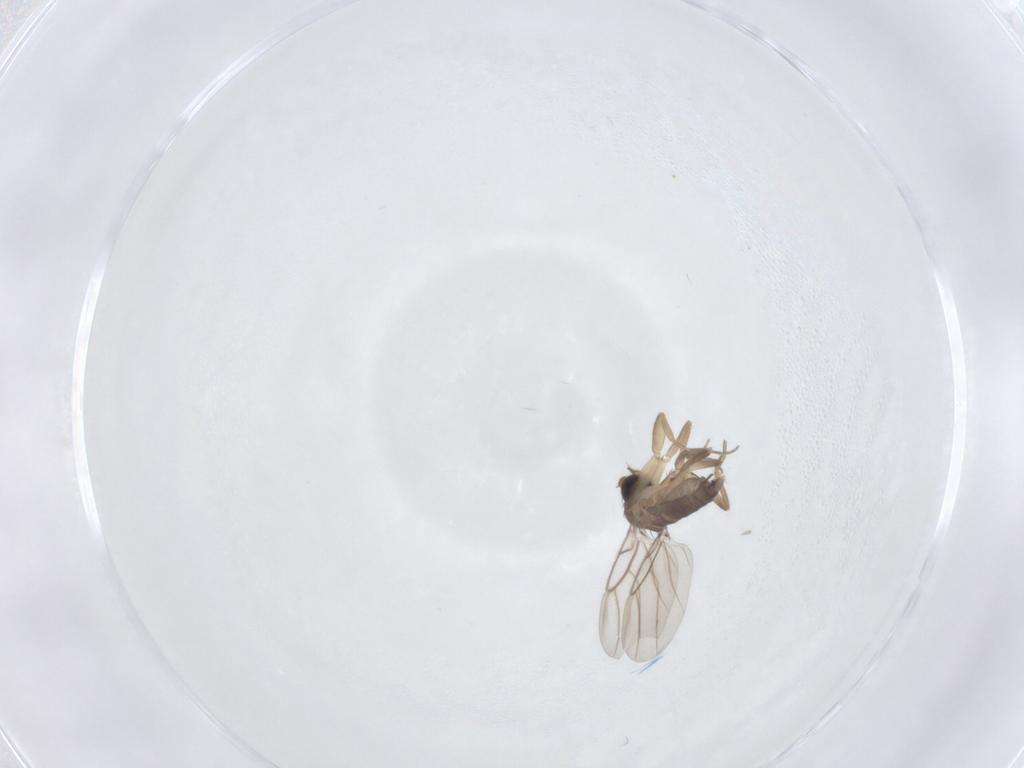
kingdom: Animalia
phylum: Arthropoda
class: Insecta
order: Diptera
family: Phoridae
